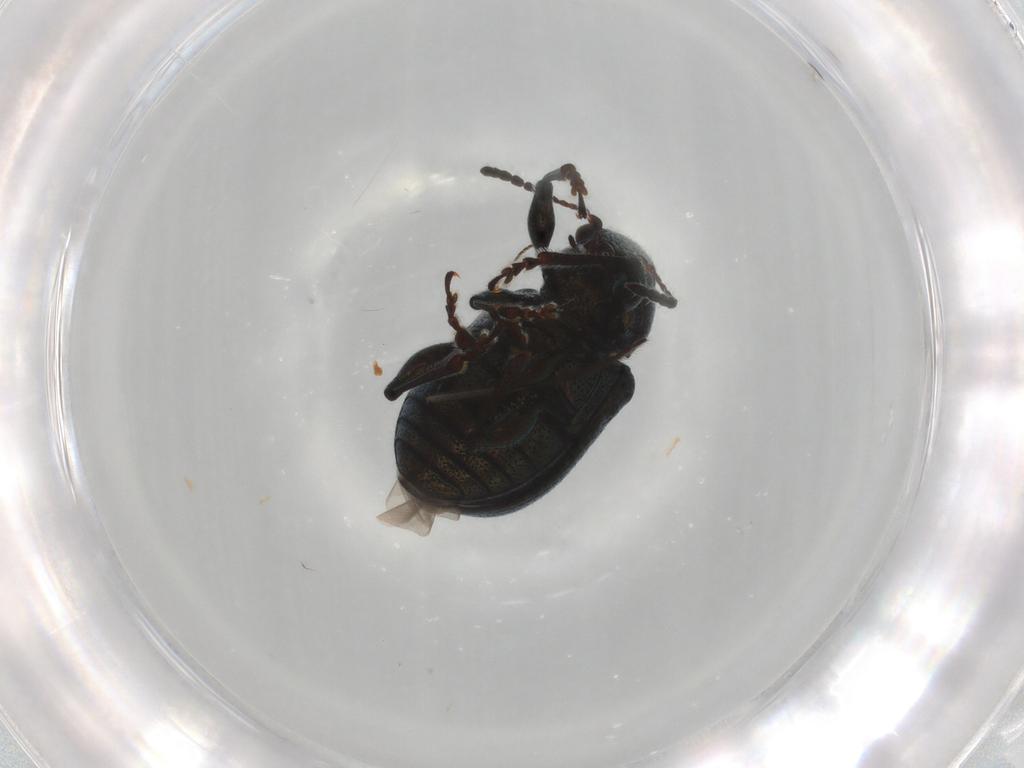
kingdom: Animalia
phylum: Arthropoda
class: Insecta
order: Coleoptera
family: Chrysomelidae
